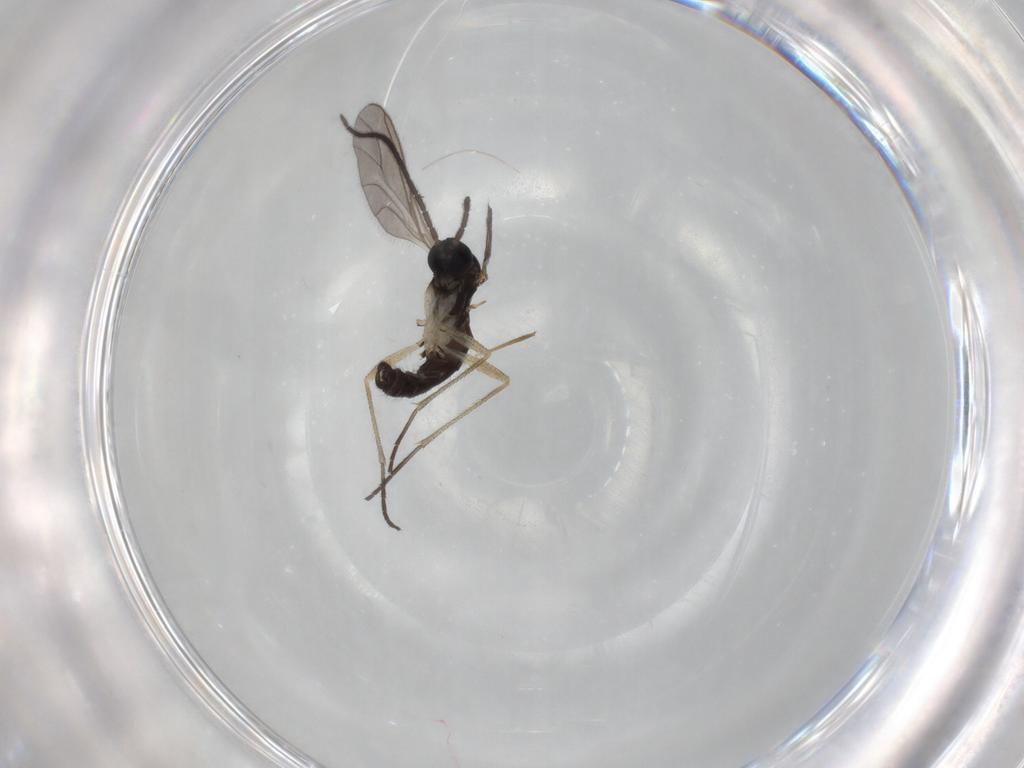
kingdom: Animalia
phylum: Arthropoda
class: Insecta
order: Diptera
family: Sciaridae
